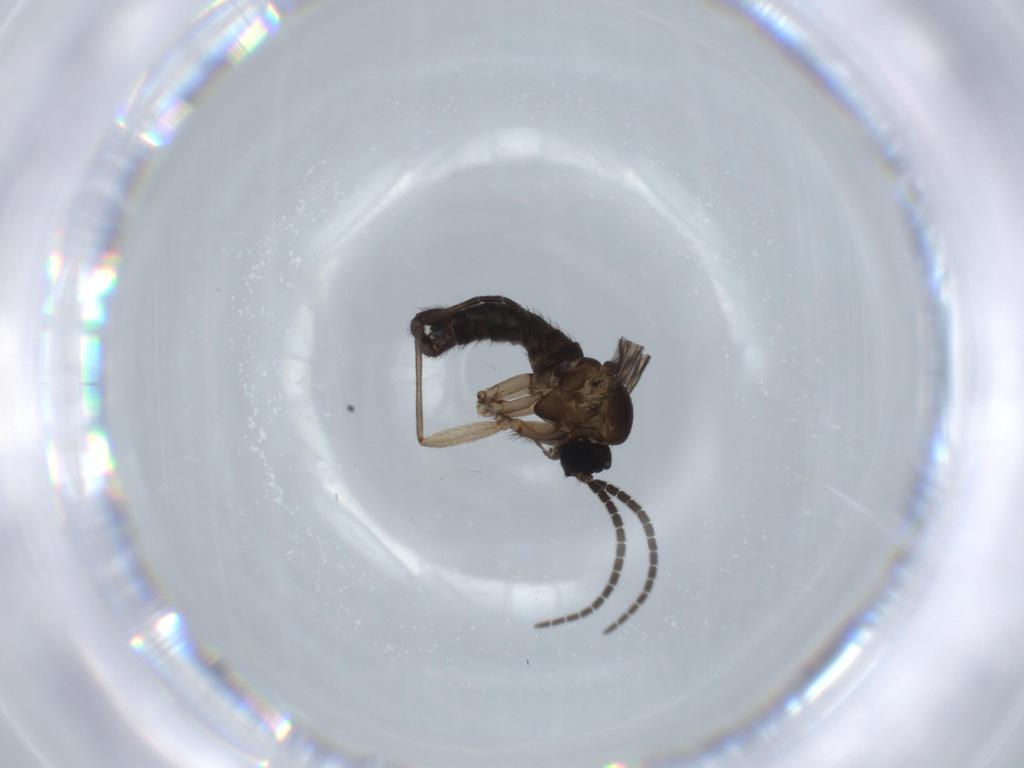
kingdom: Animalia
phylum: Arthropoda
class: Insecta
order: Diptera
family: Sciaridae
